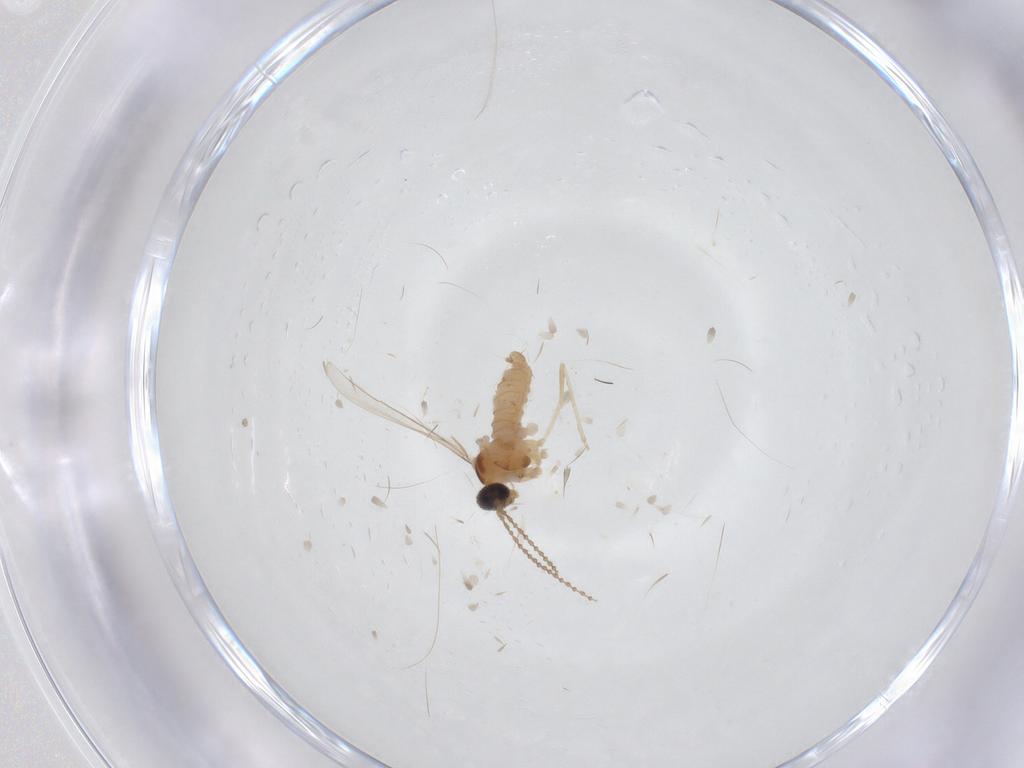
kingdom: Animalia
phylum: Arthropoda
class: Insecta
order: Diptera
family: Cecidomyiidae
